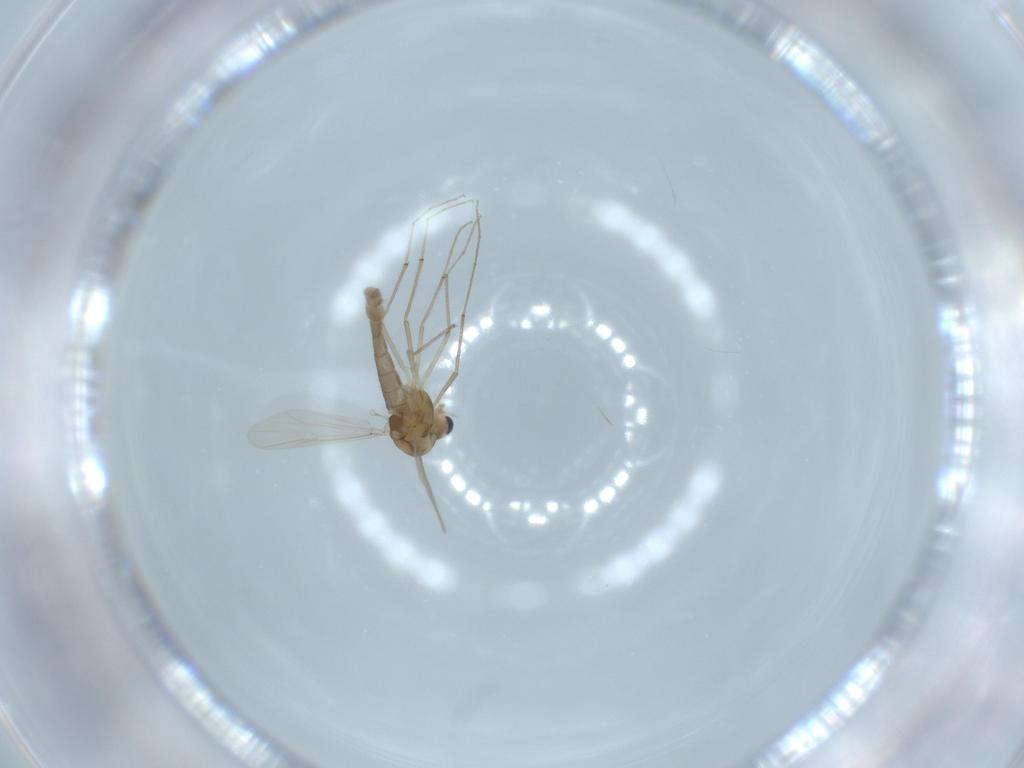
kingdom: Animalia
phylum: Arthropoda
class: Insecta
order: Diptera
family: Chironomidae
